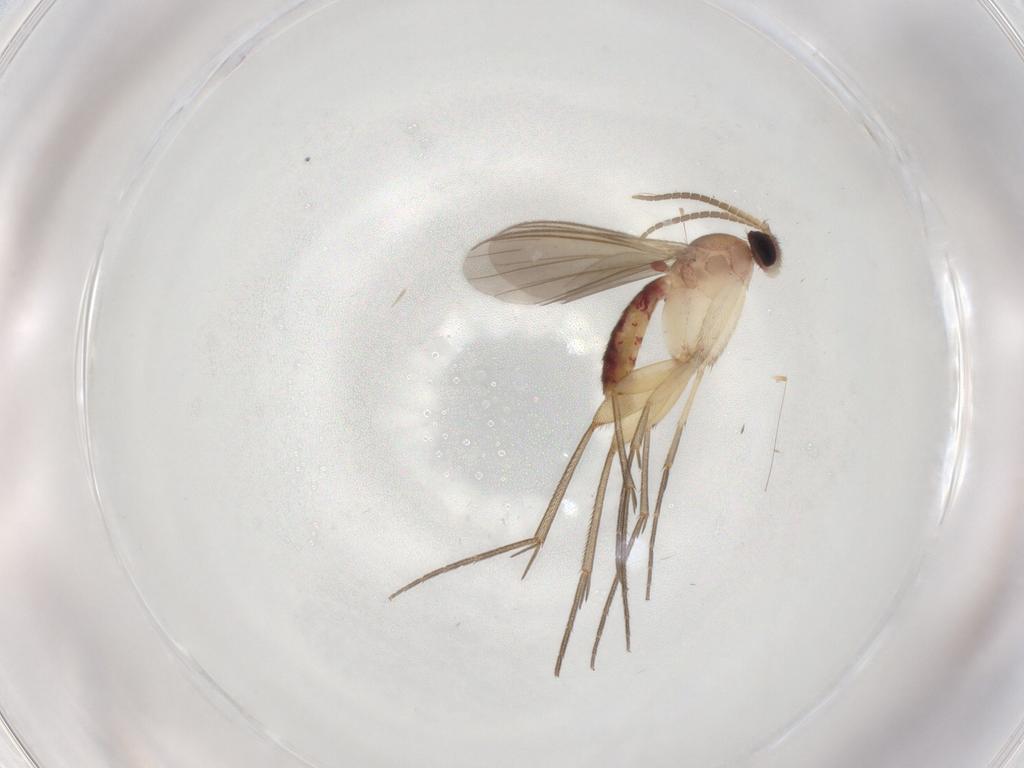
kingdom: Animalia
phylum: Arthropoda
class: Insecta
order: Diptera
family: Mycetophilidae
